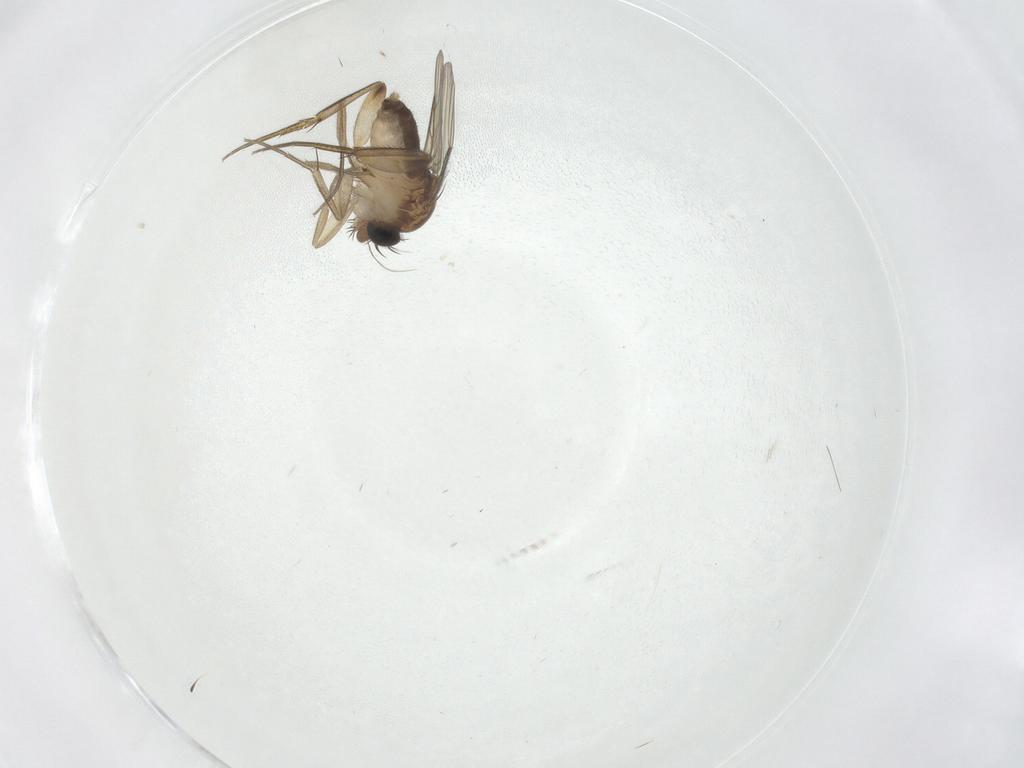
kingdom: Animalia
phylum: Arthropoda
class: Insecta
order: Diptera
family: Phoridae
